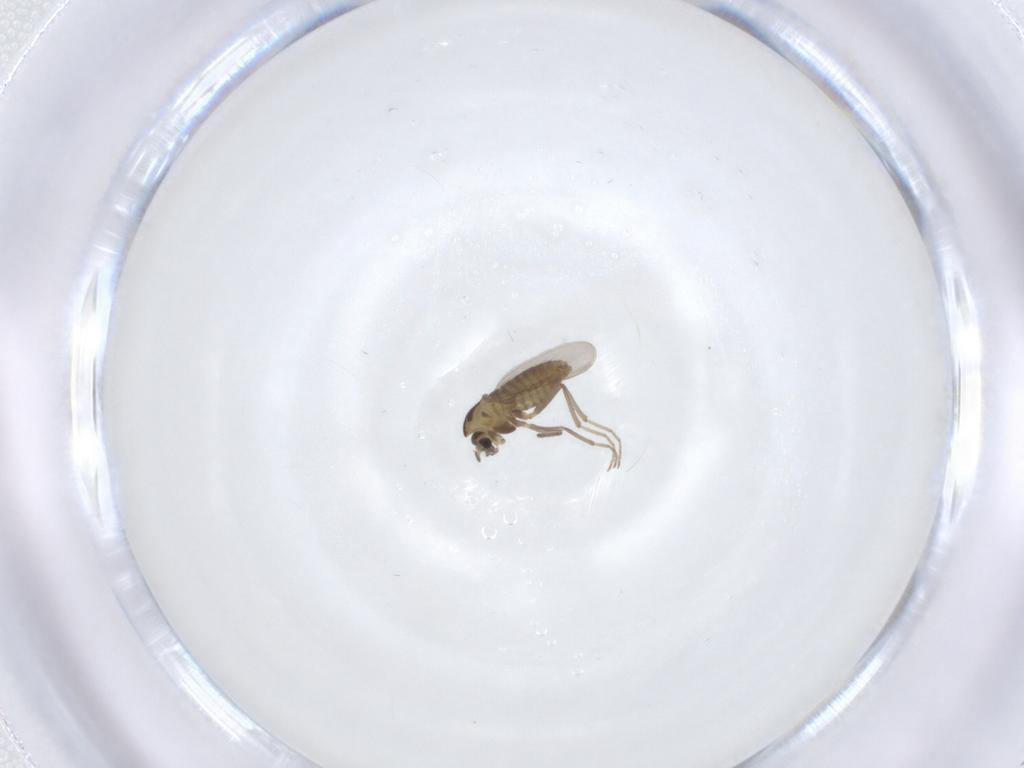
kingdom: Animalia
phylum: Arthropoda
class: Insecta
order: Diptera
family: Chironomidae
